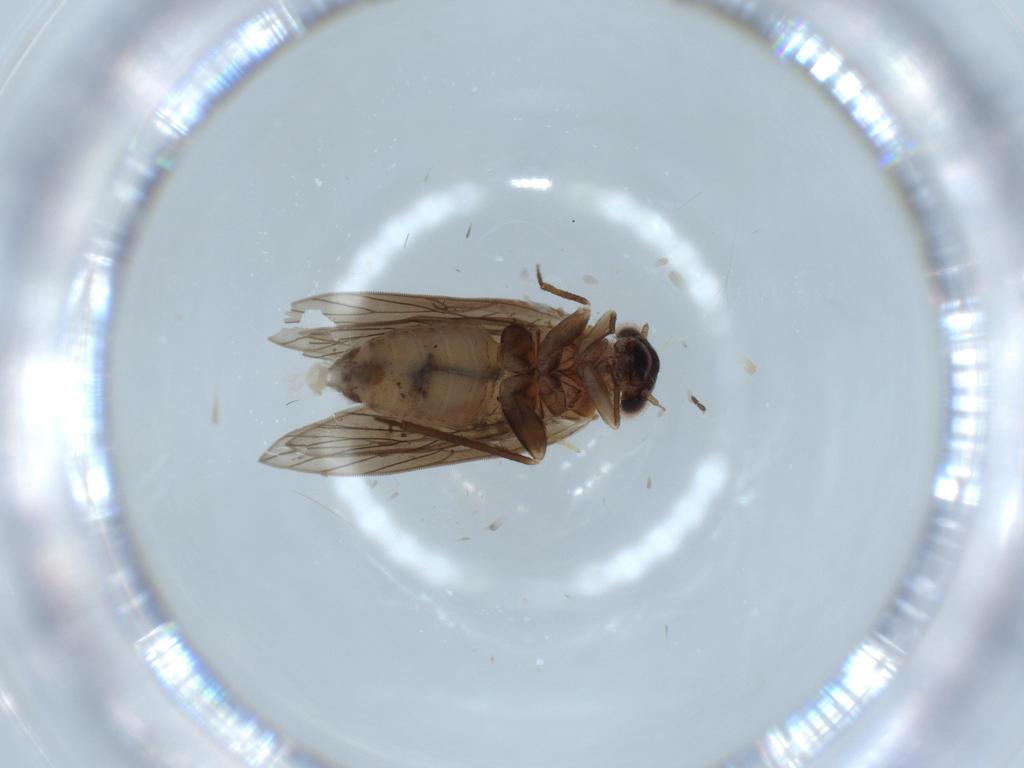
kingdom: Animalia
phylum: Arthropoda
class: Insecta
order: Psocodea
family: Lepidopsocidae
